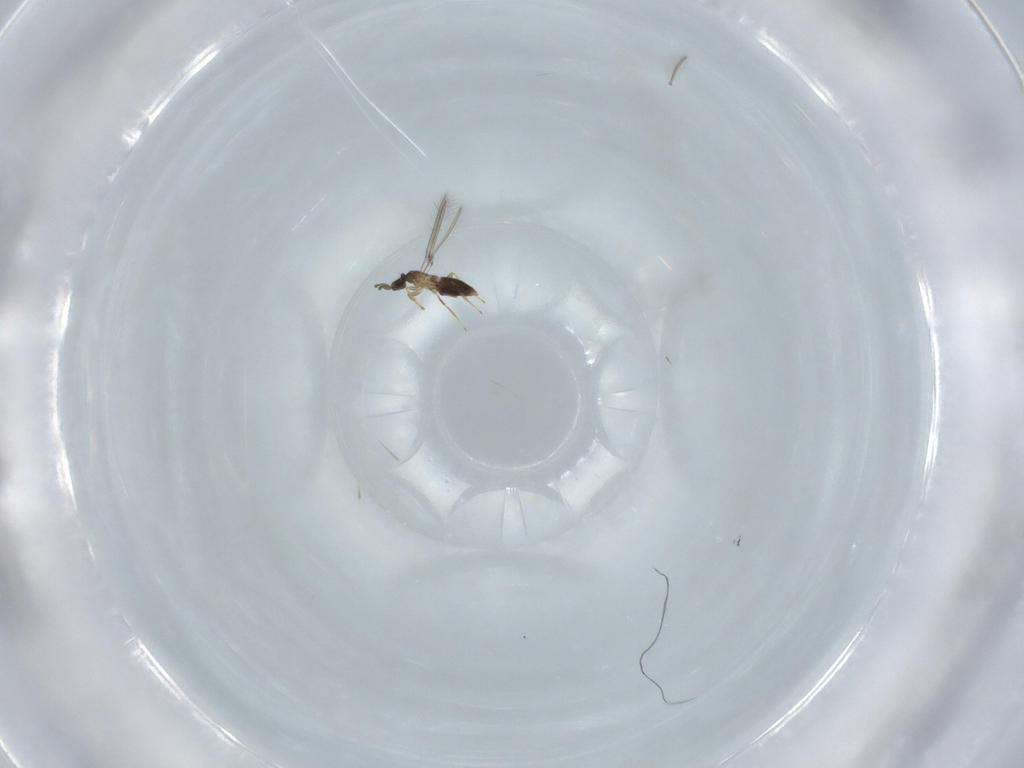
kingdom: Animalia
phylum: Arthropoda
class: Insecta
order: Hymenoptera
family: Mymaridae
